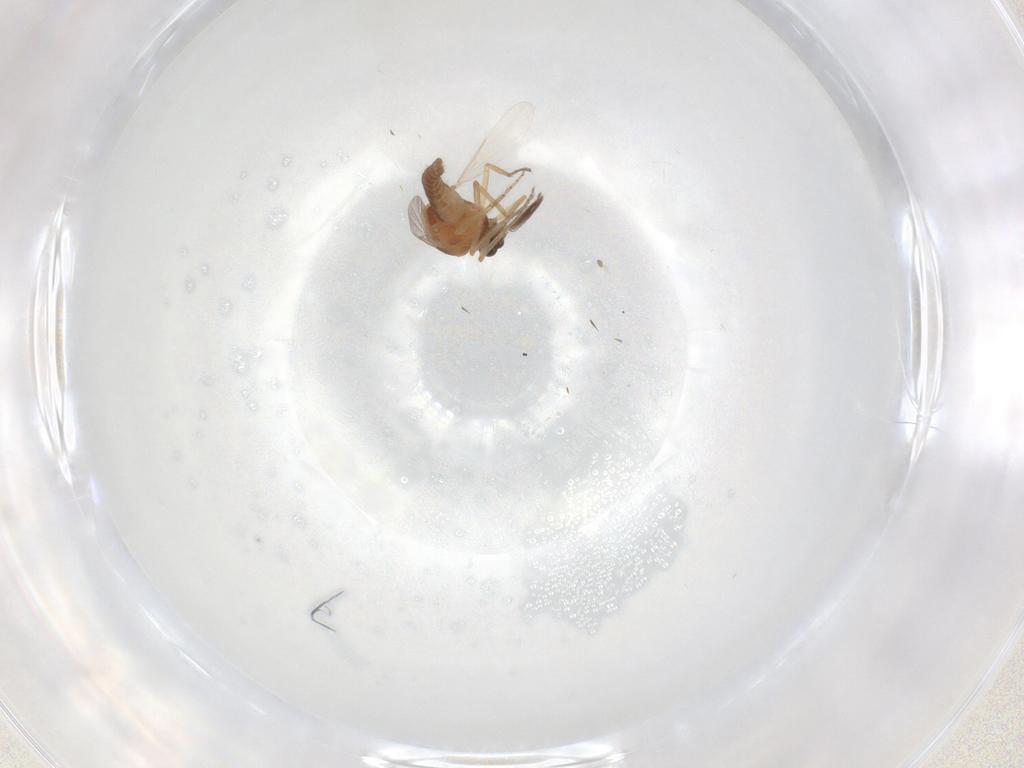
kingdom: Animalia
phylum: Arthropoda
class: Insecta
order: Diptera
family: Ceratopogonidae
